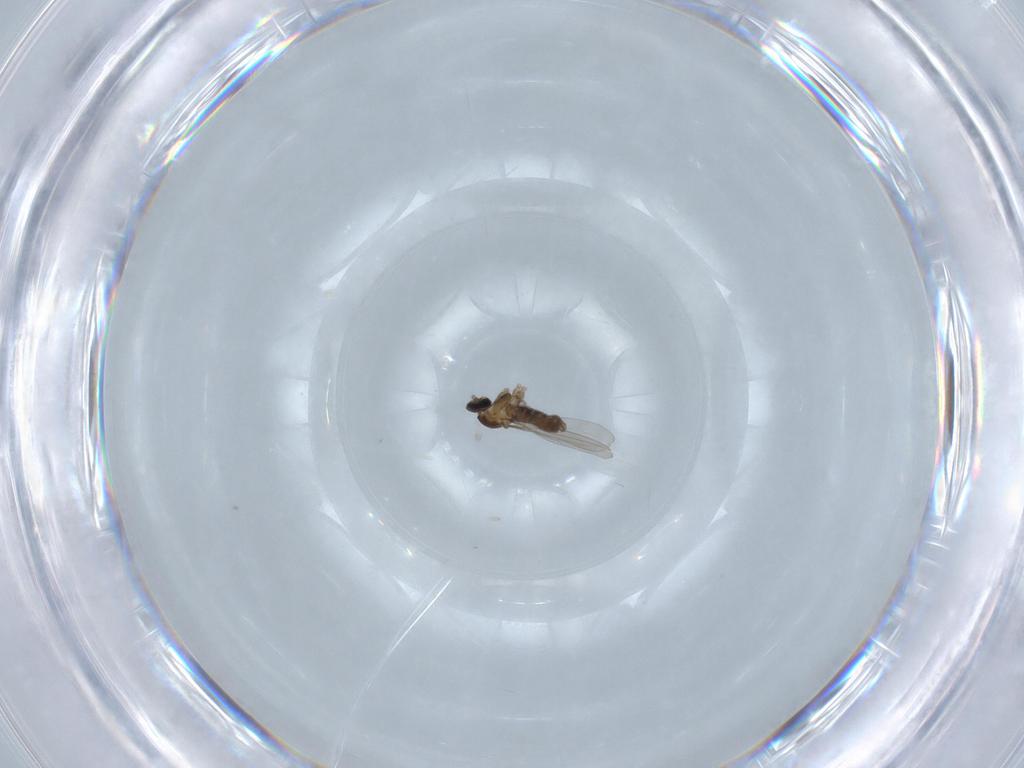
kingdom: Animalia
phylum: Arthropoda
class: Insecta
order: Diptera
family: Cecidomyiidae
